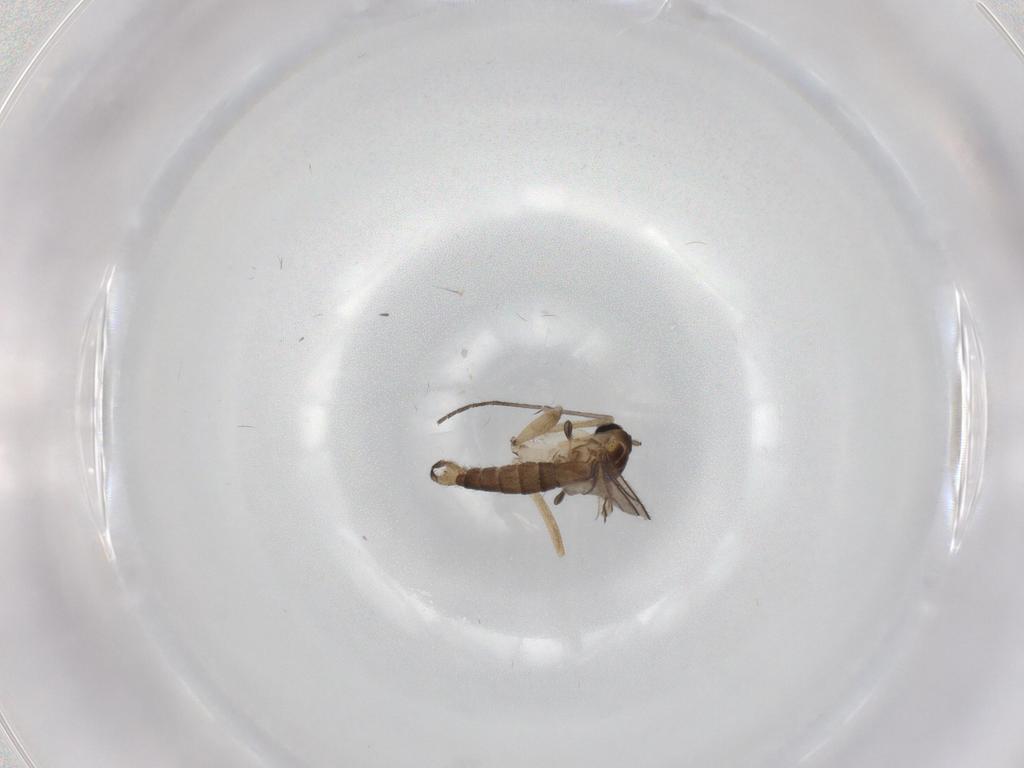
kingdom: Animalia
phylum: Arthropoda
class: Insecta
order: Diptera
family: Sciaridae
